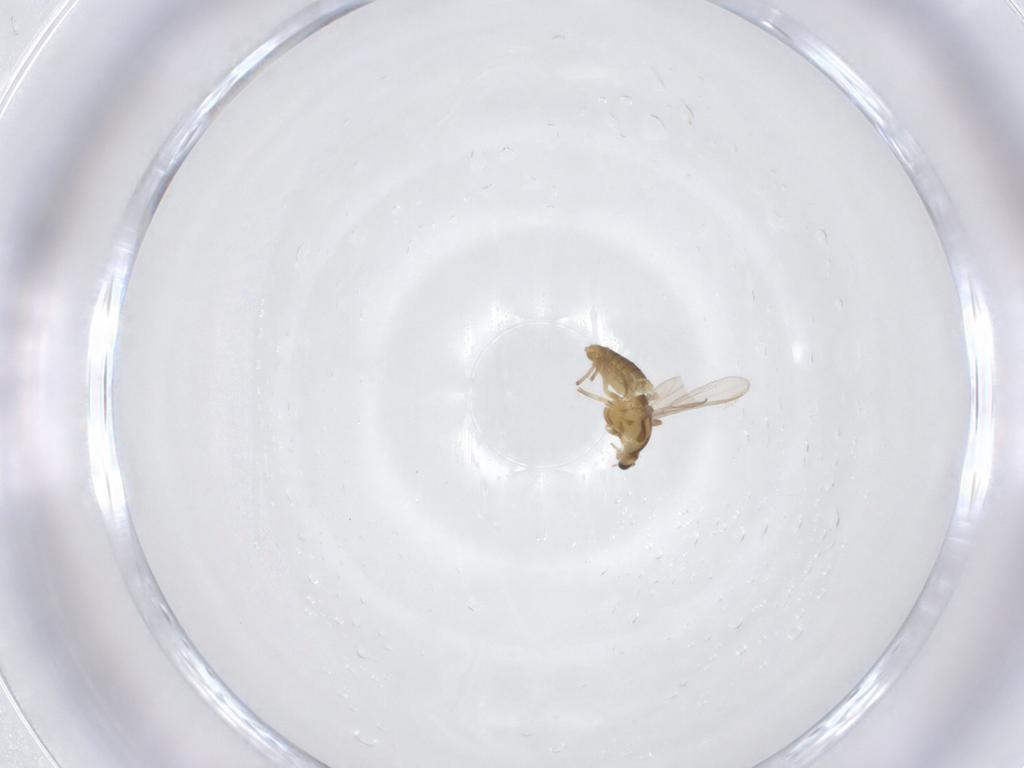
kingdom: Animalia
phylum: Arthropoda
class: Insecta
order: Diptera
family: Chironomidae
